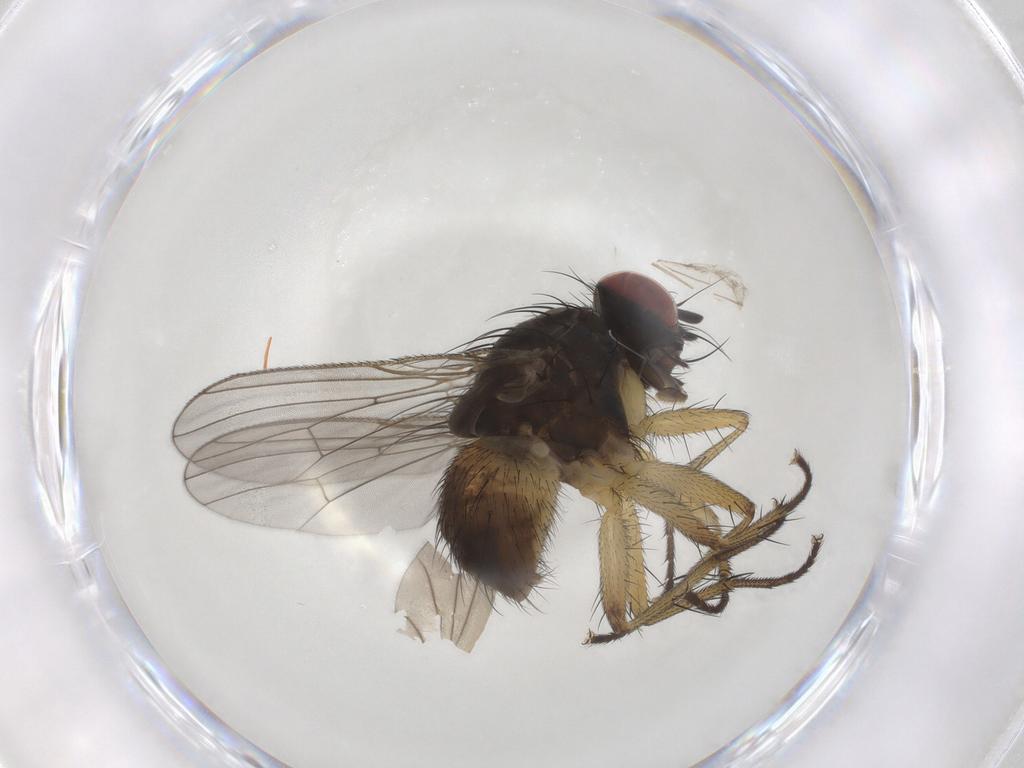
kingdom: Animalia
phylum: Arthropoda
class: Insecta
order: Diptera
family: Muscidae
